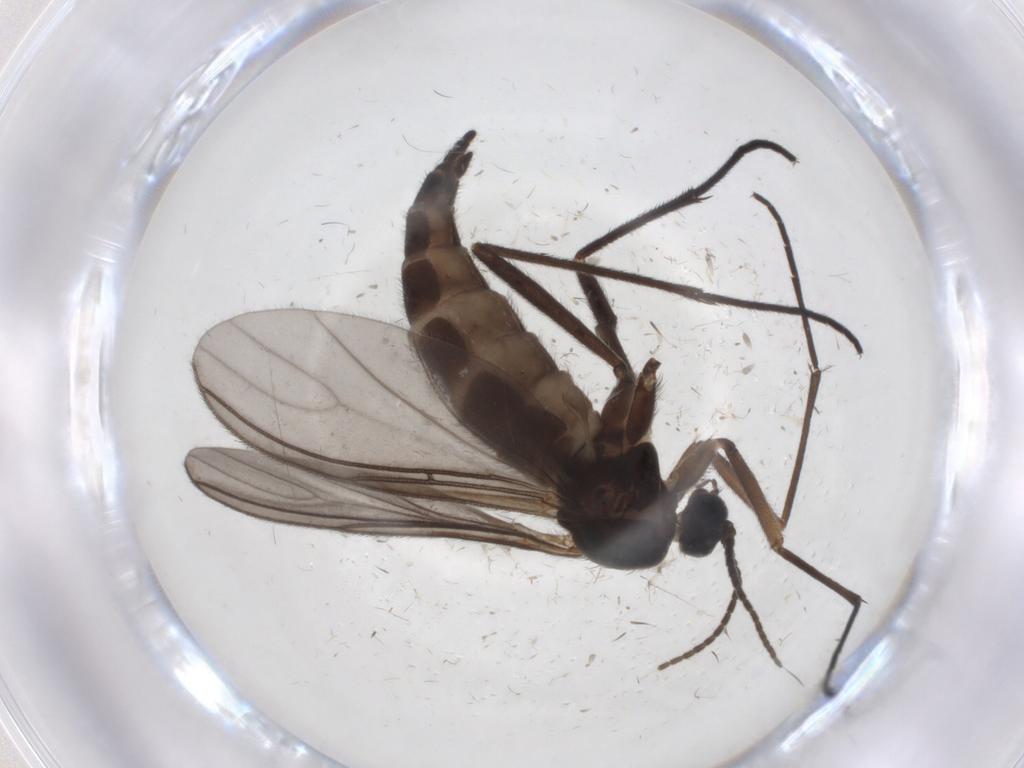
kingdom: Animalia
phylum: Arthropoda
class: Insecta
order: Diptera
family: Sciaridae
